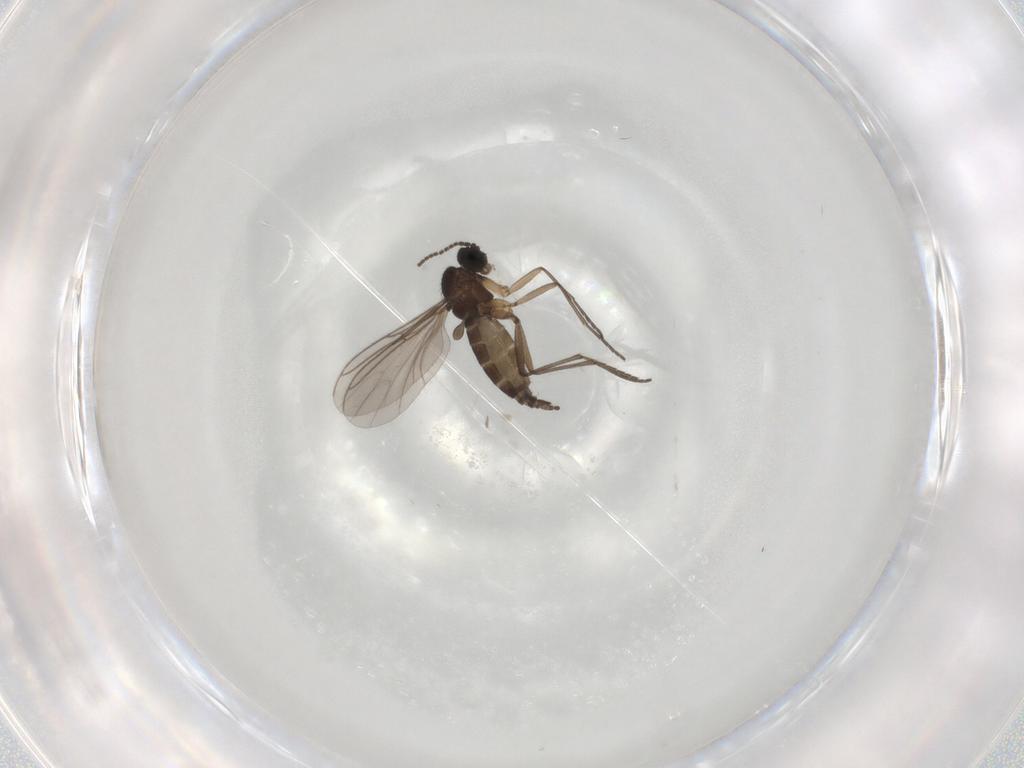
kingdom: Animalia
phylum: Arthropoda
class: Insecta
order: Diptera
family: Sciaridae
